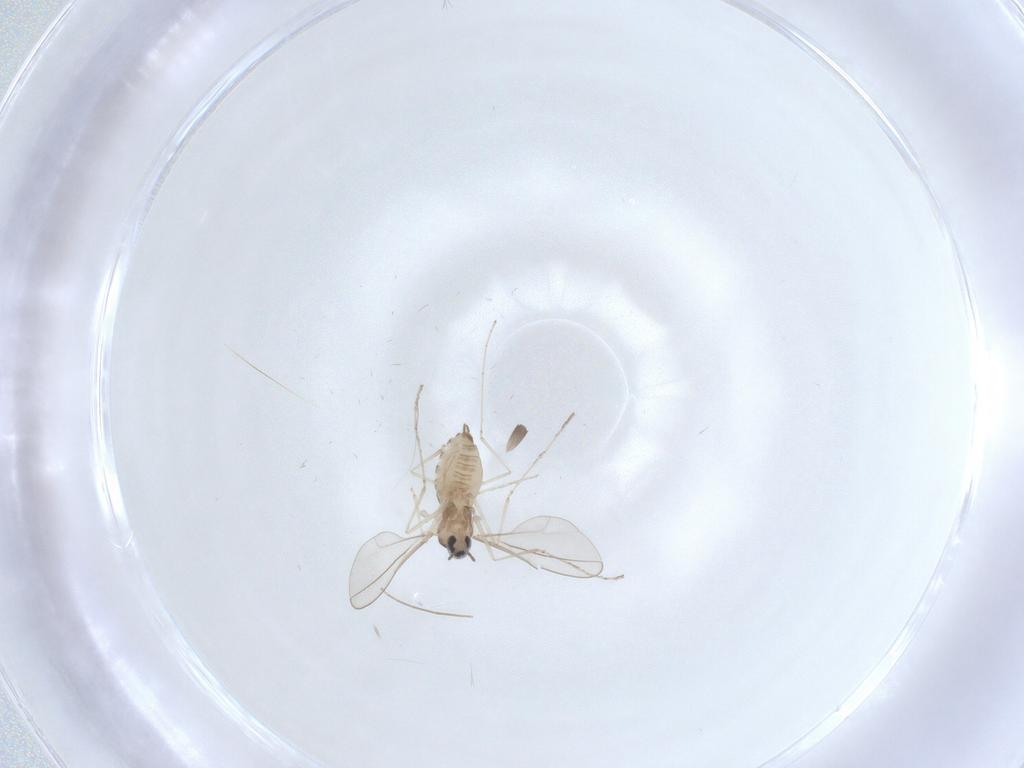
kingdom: Animalia
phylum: Arthropoda
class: Insecta
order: Diptera
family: Cecidomyiidae
